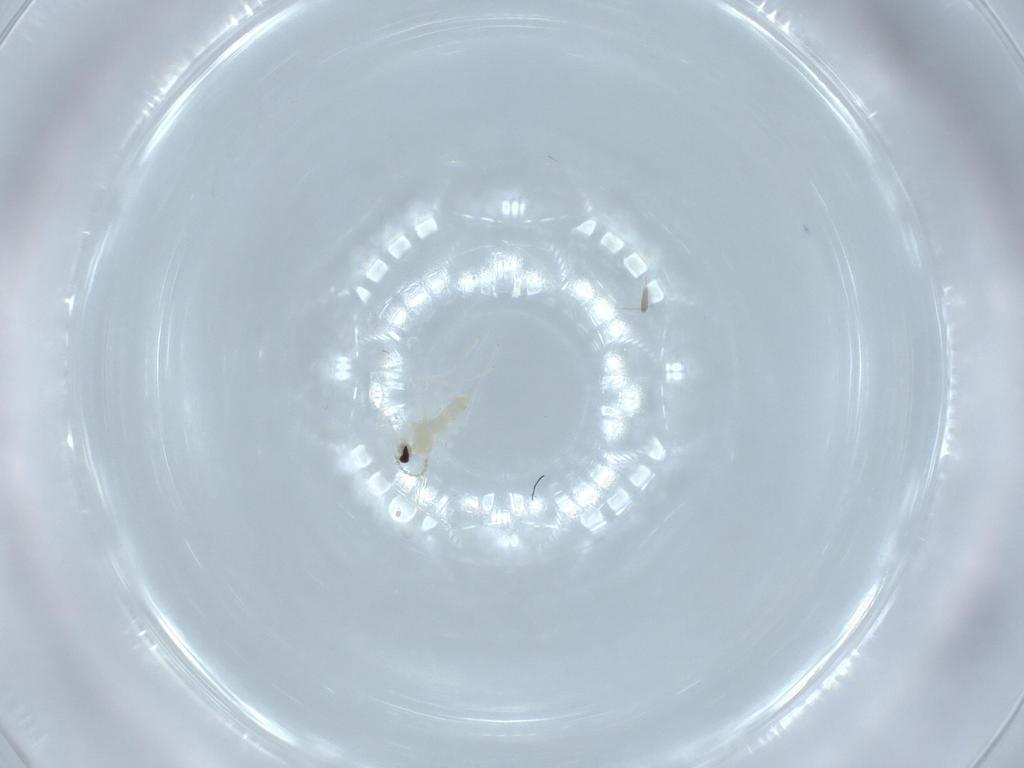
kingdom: Animalia
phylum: Arthropoda
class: Insecta
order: Diptera
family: Cecidomyiidae
